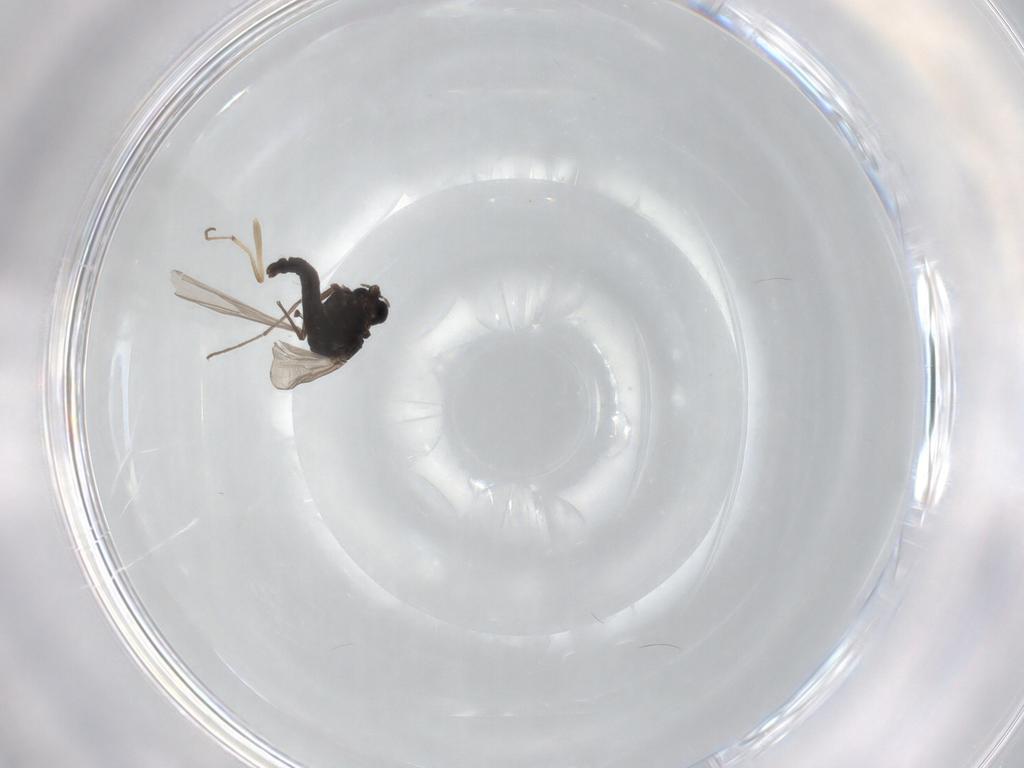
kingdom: Animalia
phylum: Arthropoda
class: Insecta
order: Diptera
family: Chironomidae
